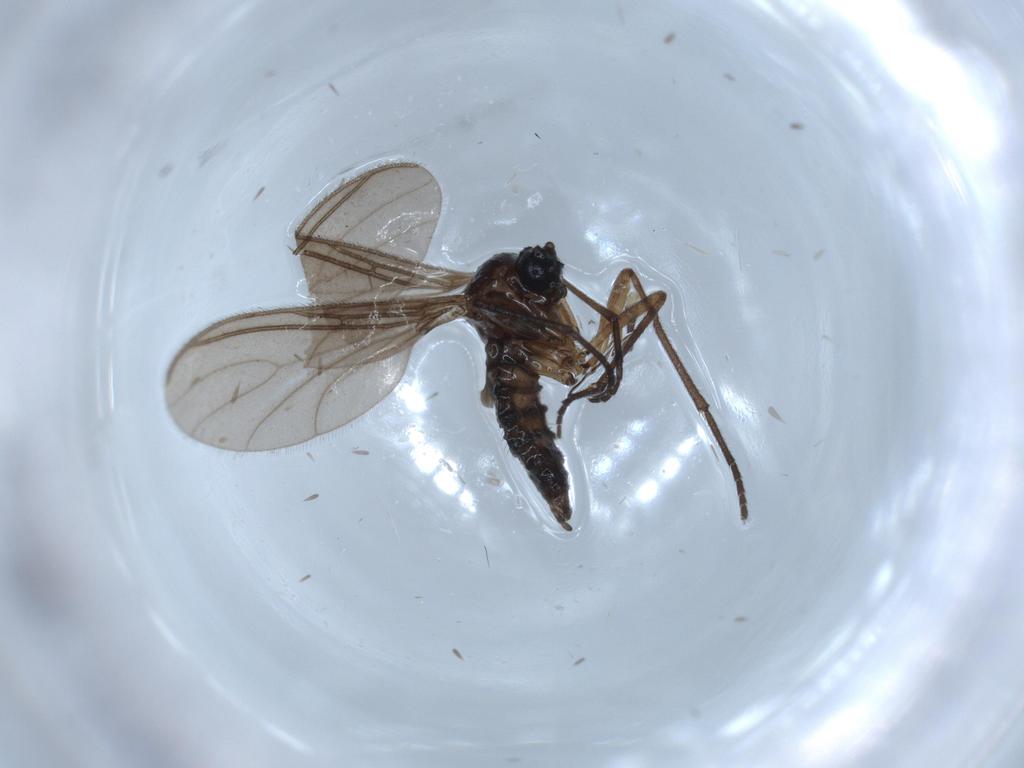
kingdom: Animalia
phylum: Arthropoda
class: Insecta
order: Diptera
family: Sciaridae
